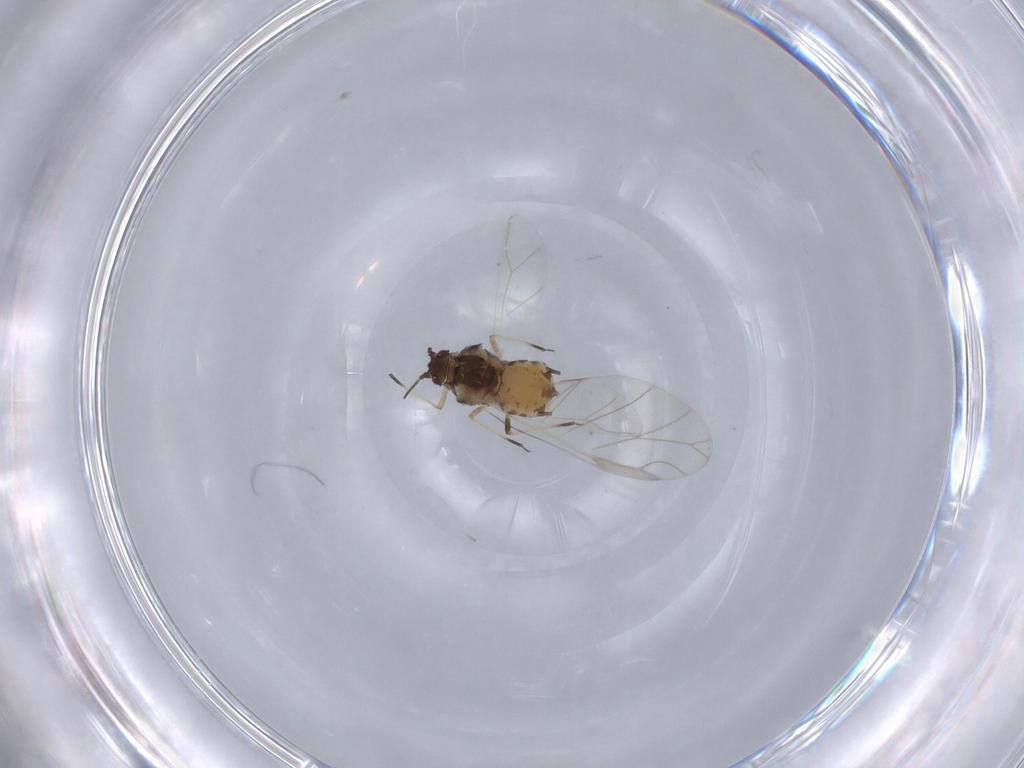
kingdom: Animalia
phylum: Arthropoda
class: Insecta
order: Hemiptera
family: Aphididae
